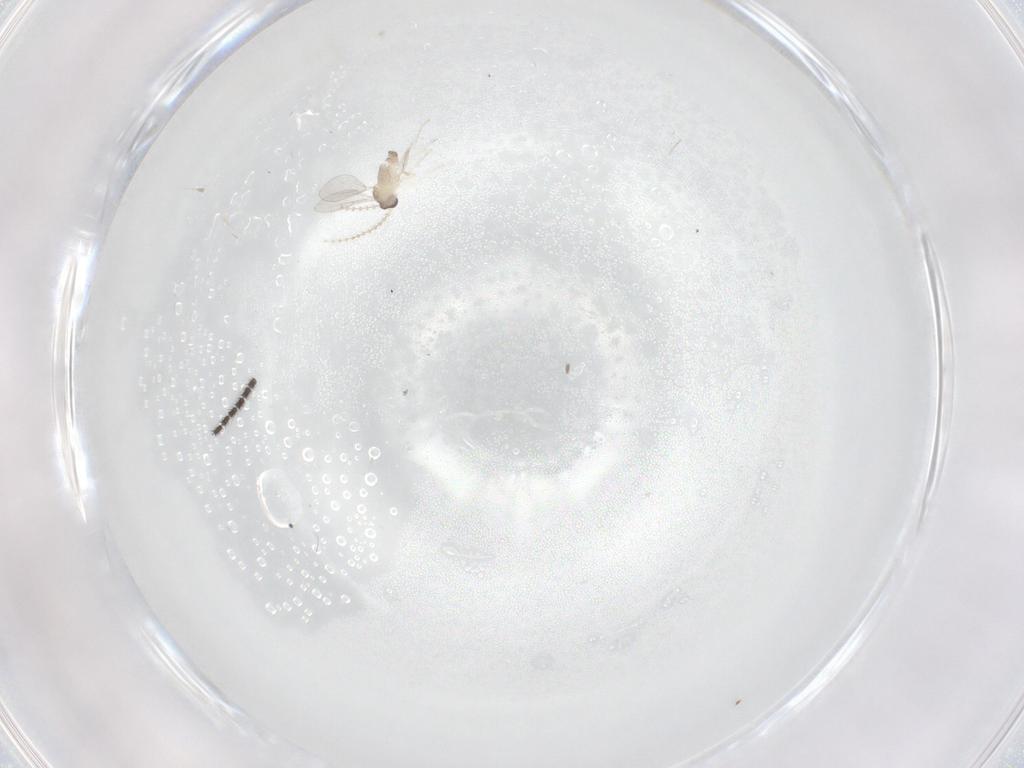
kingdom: Animalia
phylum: Arthropoda
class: Insecta
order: Diptera
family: Cecidomyiidae
